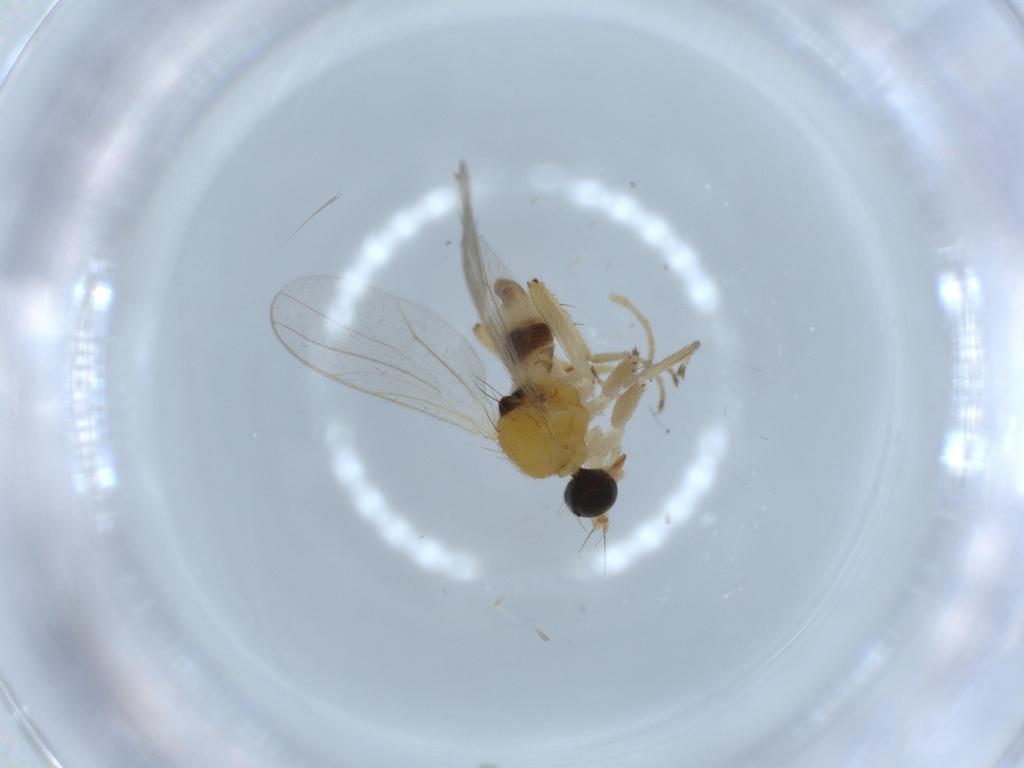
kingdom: Animalia
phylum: Arthropoda
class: Insecta
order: Diptera
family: Hybotidae
